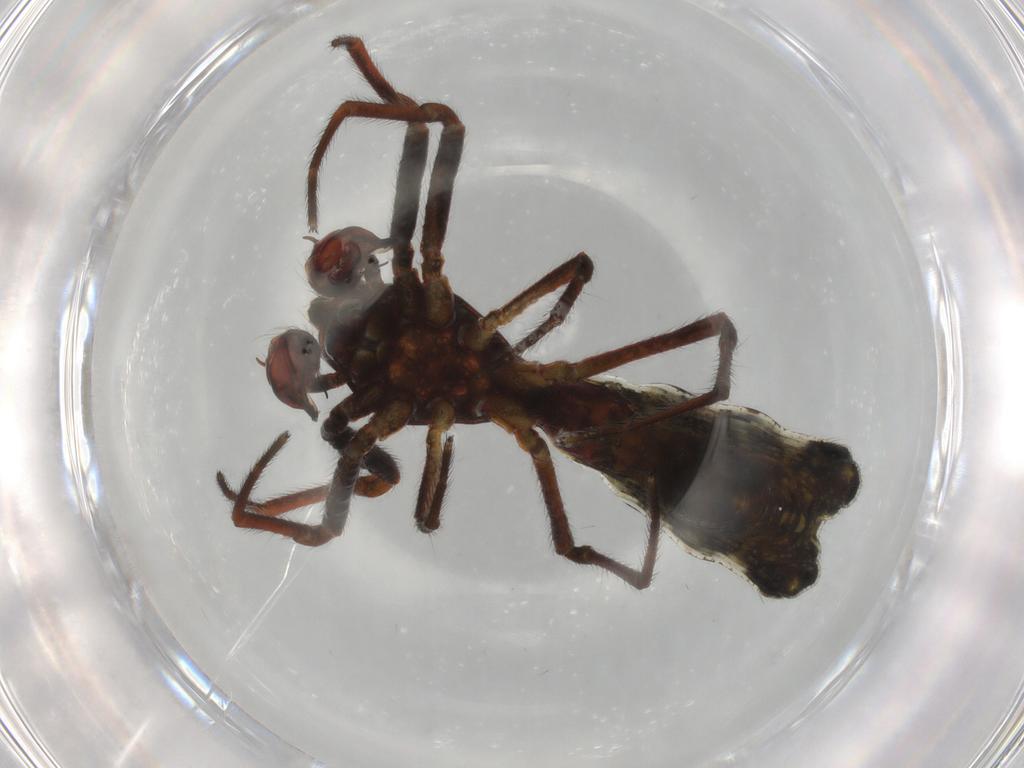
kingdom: Animalia
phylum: Arthropoda
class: Arachnida
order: Araneae
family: Araneidae
